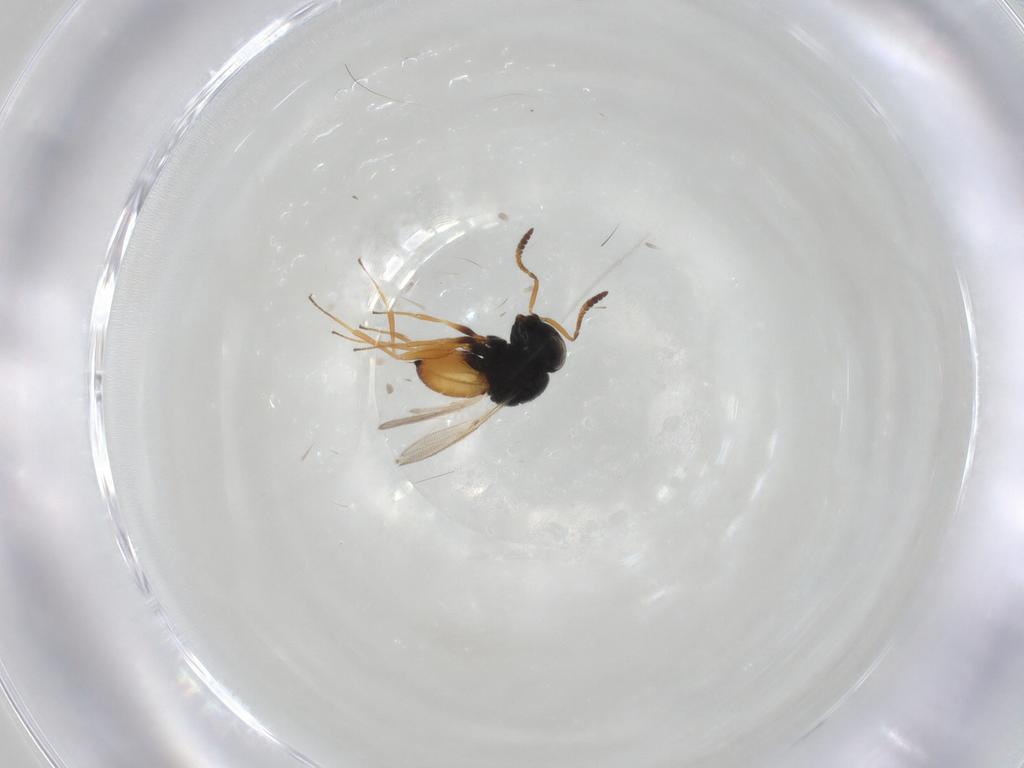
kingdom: Animalia
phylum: Arthropoda
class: Insecta
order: Hymenoptera
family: Scelionidae
